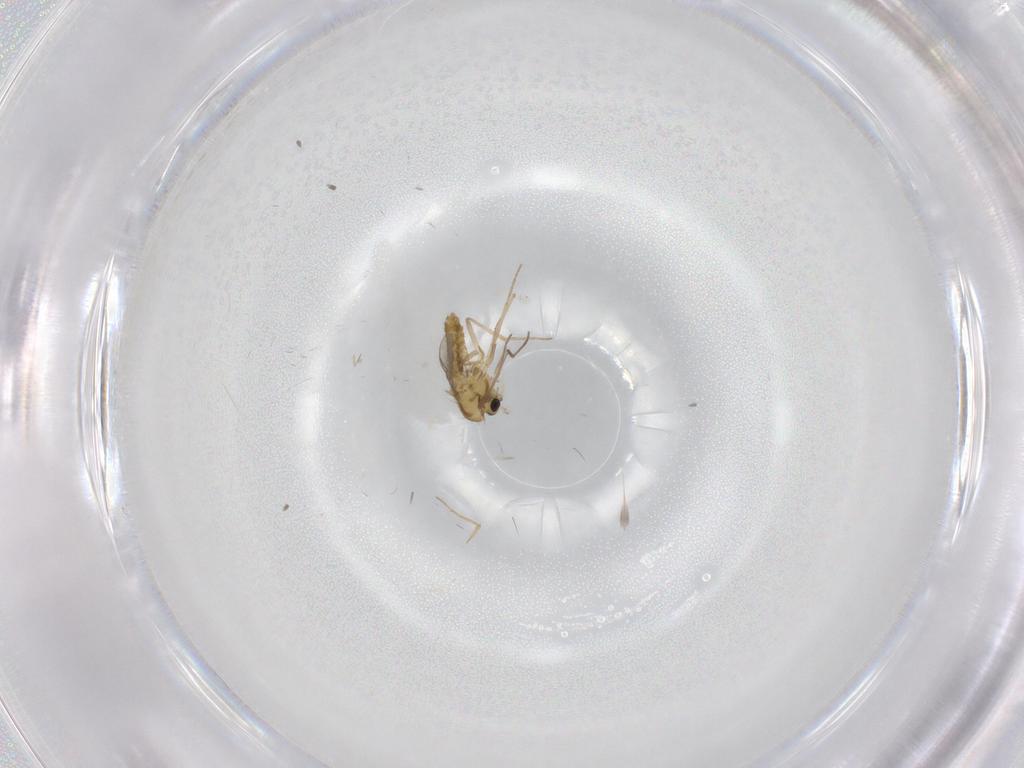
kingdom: Animalia
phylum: Arthropoda
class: Insecta
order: Diptera
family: Chironomidae
